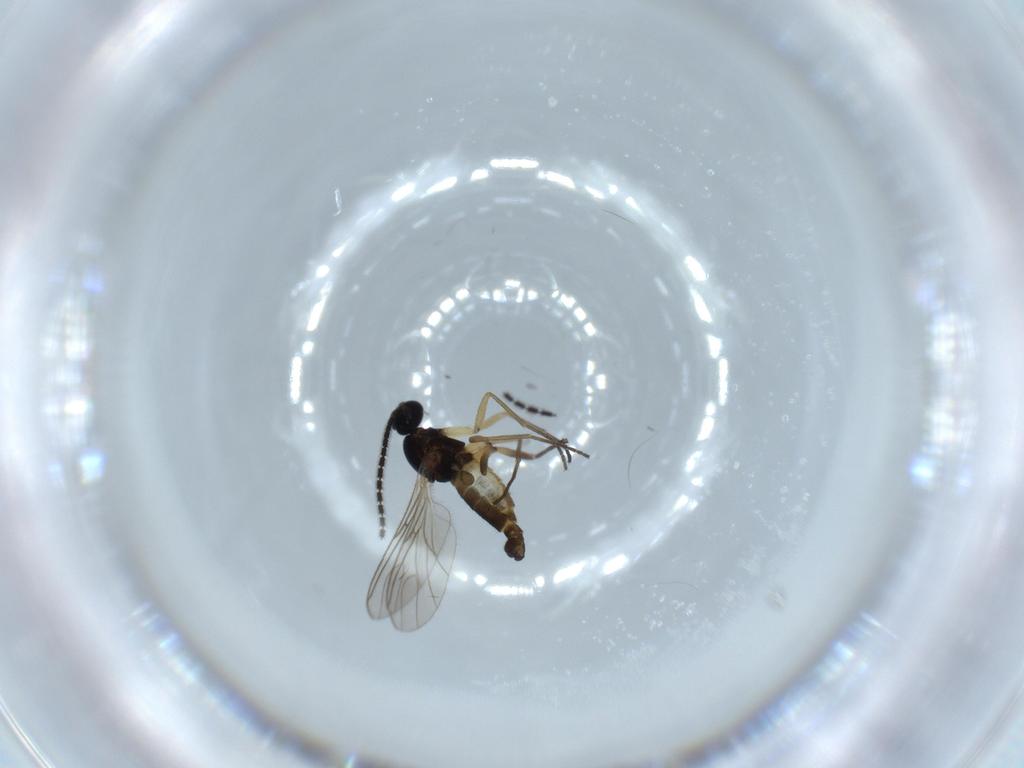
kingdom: Animalia
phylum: Arthropoda
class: Insecta
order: Diptera
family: Sciaridae
